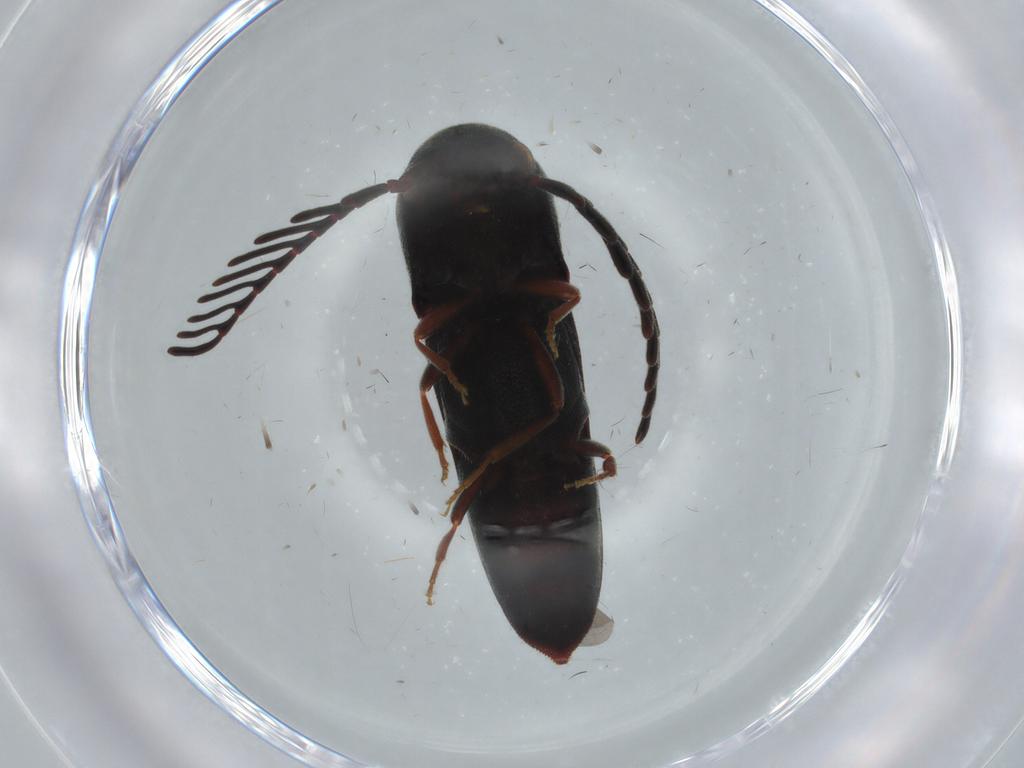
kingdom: Animalia
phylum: Arthropoda
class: Insecta
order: Coleoptera
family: Eucnemidae
